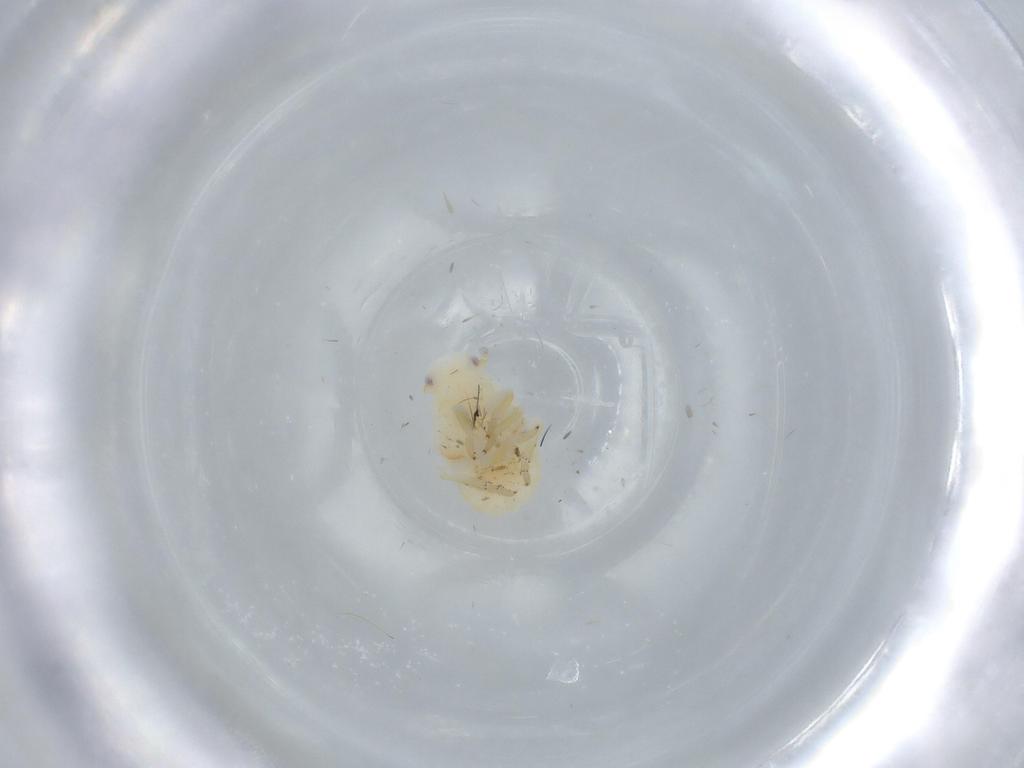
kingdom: Animalia
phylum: Arthropoda
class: Insecta
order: Hemiptera
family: Flatidae
